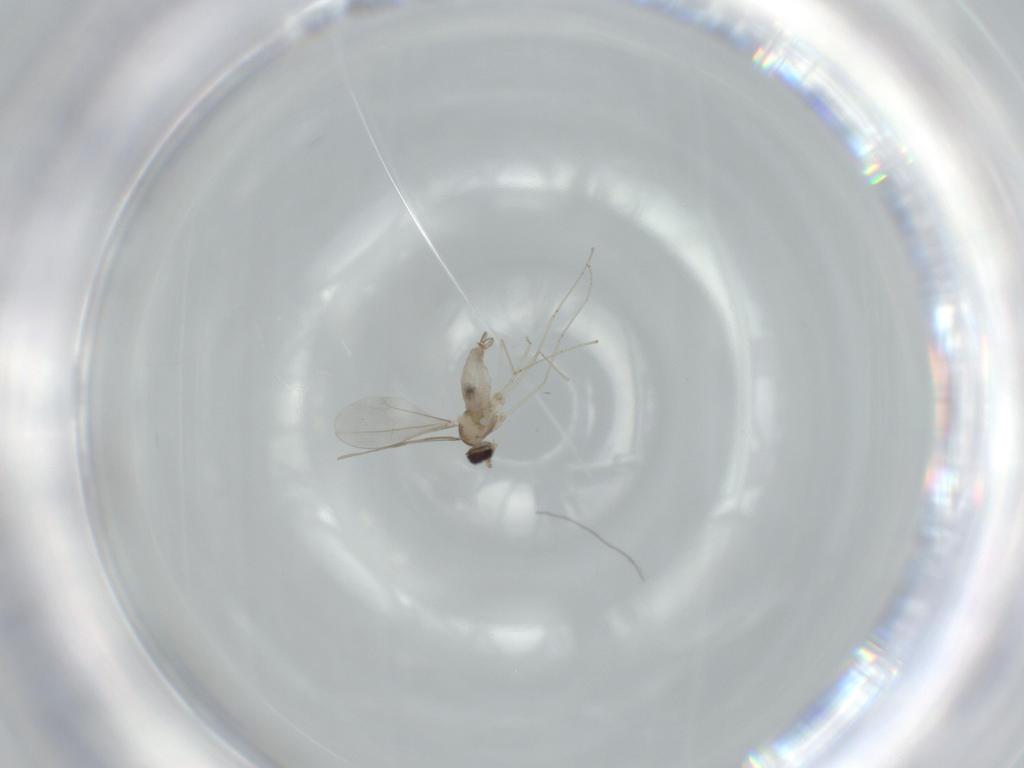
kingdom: Animalia
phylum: Arthropoda
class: Insecta
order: Diptera
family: Cecidomyiidae
